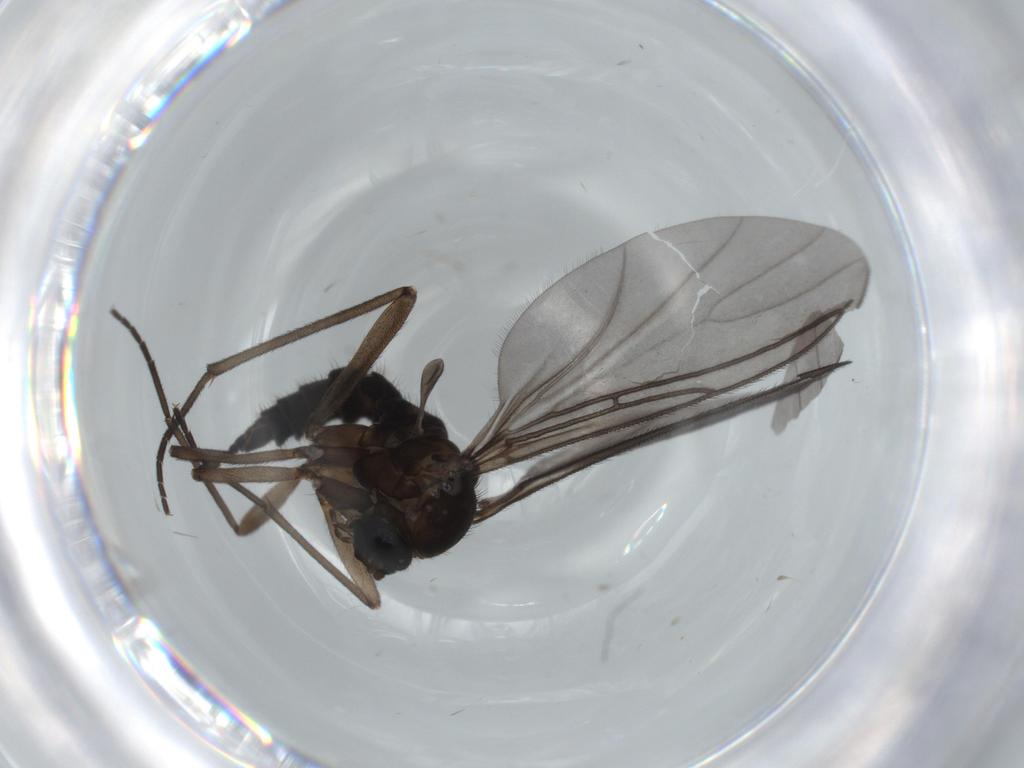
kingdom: Animalia
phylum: Arthropoda
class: Insecta
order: Diptera
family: Sciaridae
